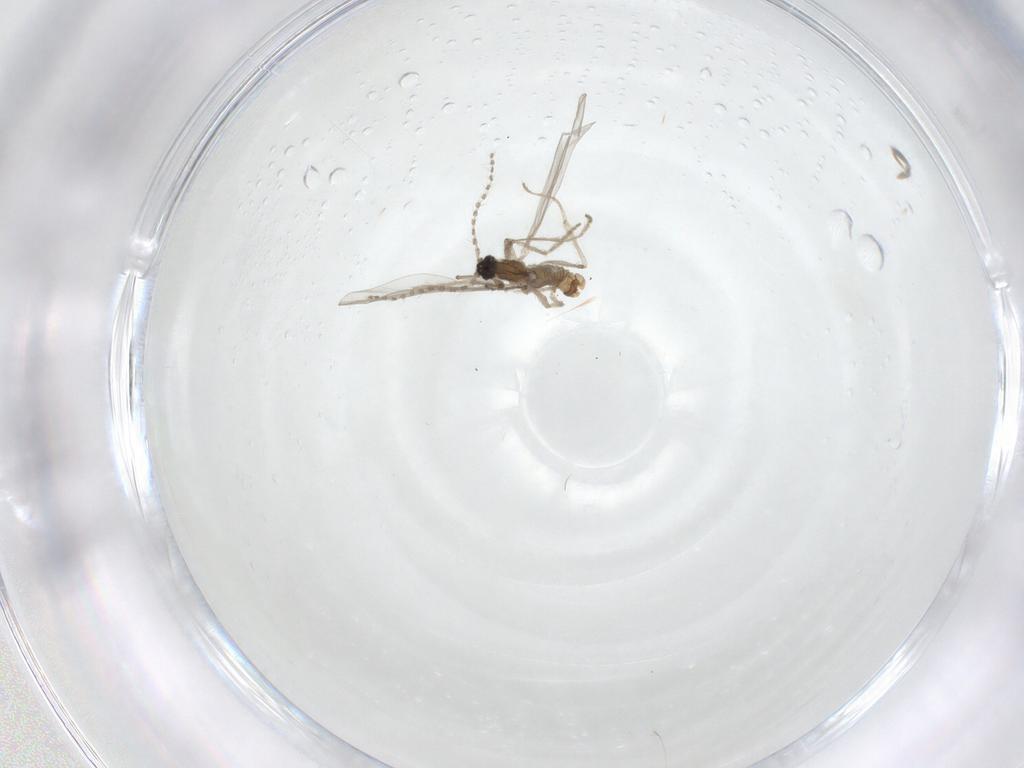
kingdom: Animalia
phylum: Arthropoda
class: Insecta
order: Diptera
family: Cecidomyiidae
